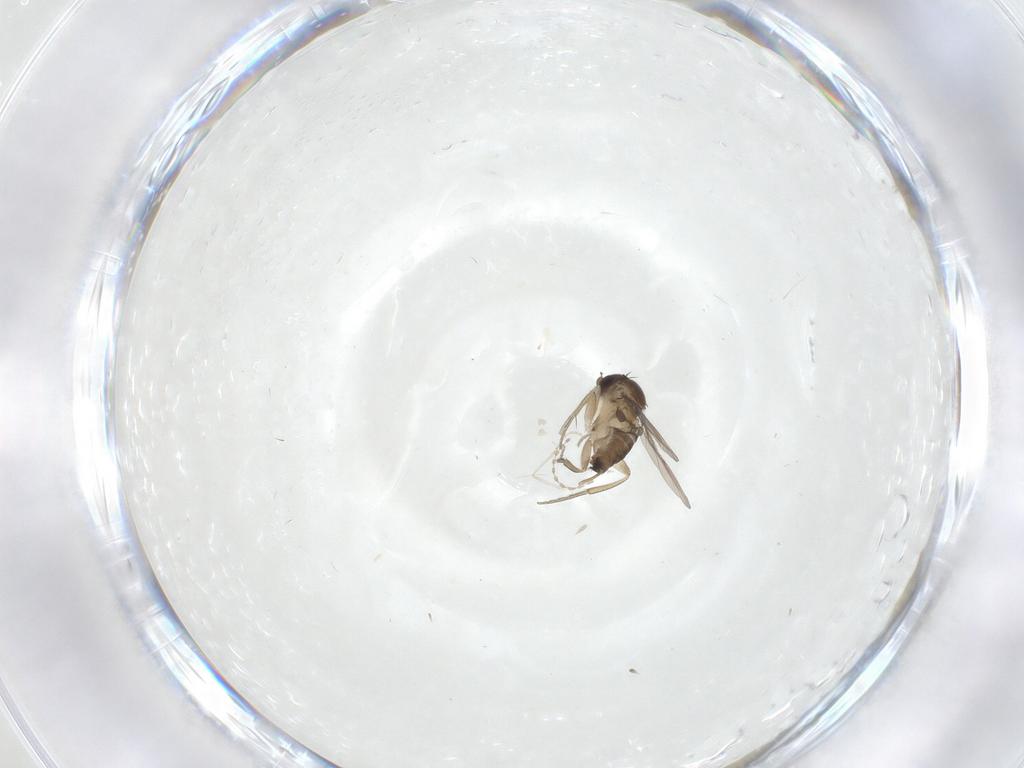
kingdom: Animalia
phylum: Arthropoda
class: Insecta
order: Diptera
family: Phoridae
